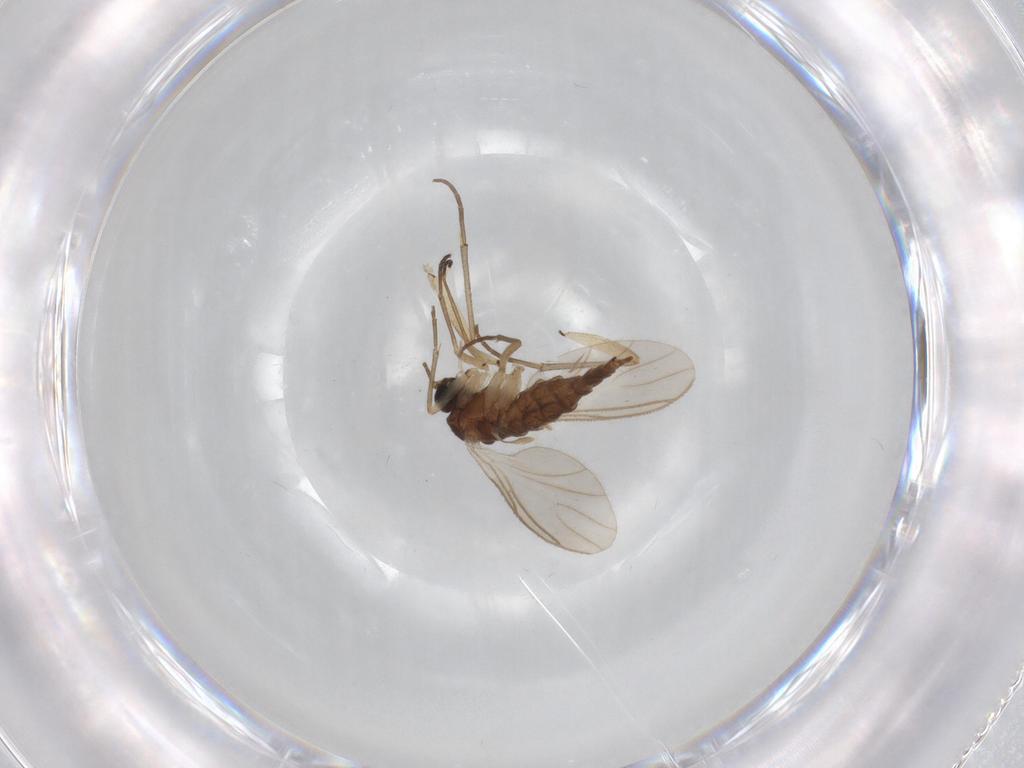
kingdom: Animalia
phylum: Arthropoda
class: Insecta
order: Diptera
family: Sciaridae
